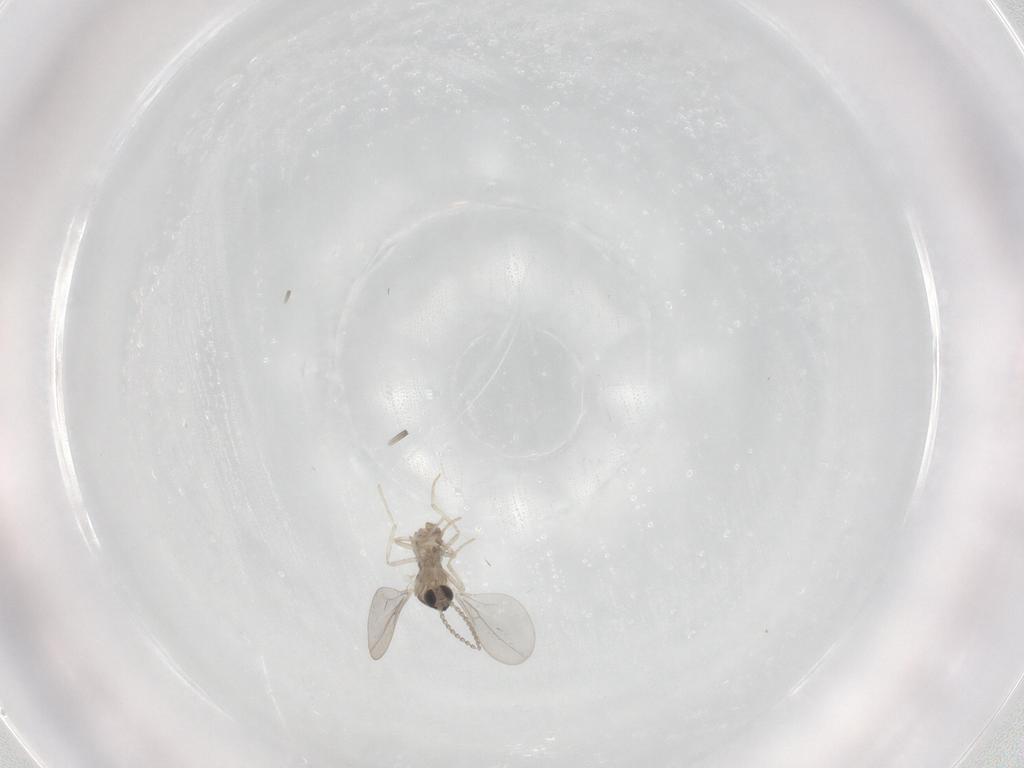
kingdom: Animalia
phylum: Arthropoda
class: Insecta
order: Diptera
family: Cecidomyiidae
